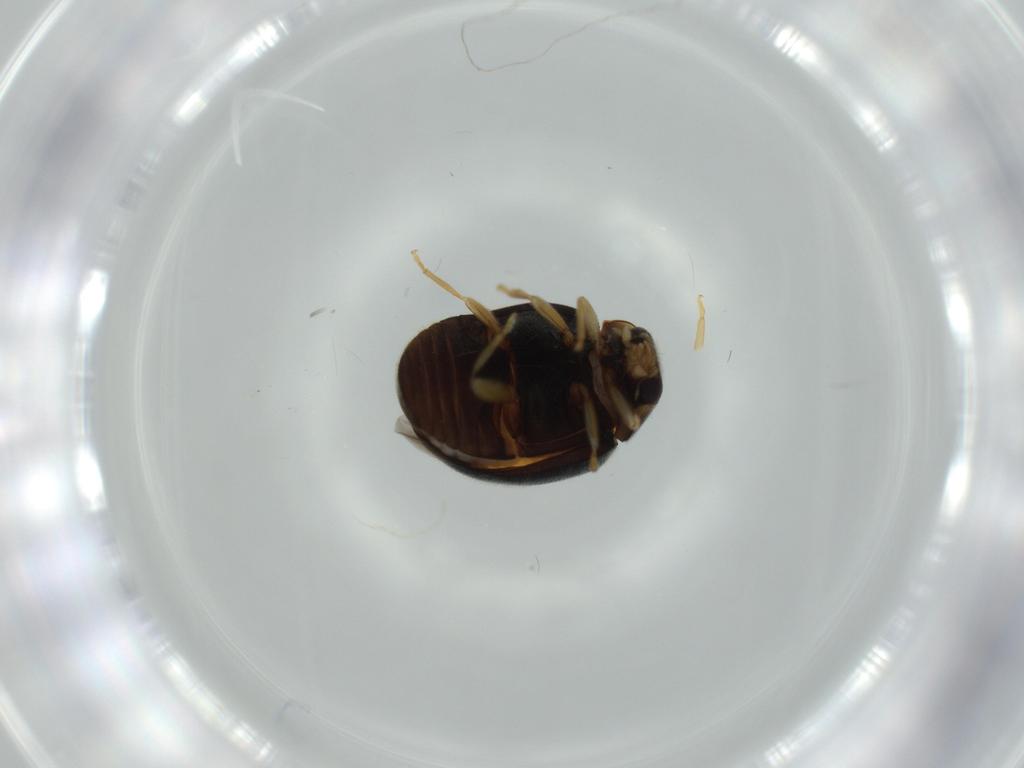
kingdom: Animalia
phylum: Arthropoda
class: Insecta
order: Coleoptera
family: Coccinellidae
